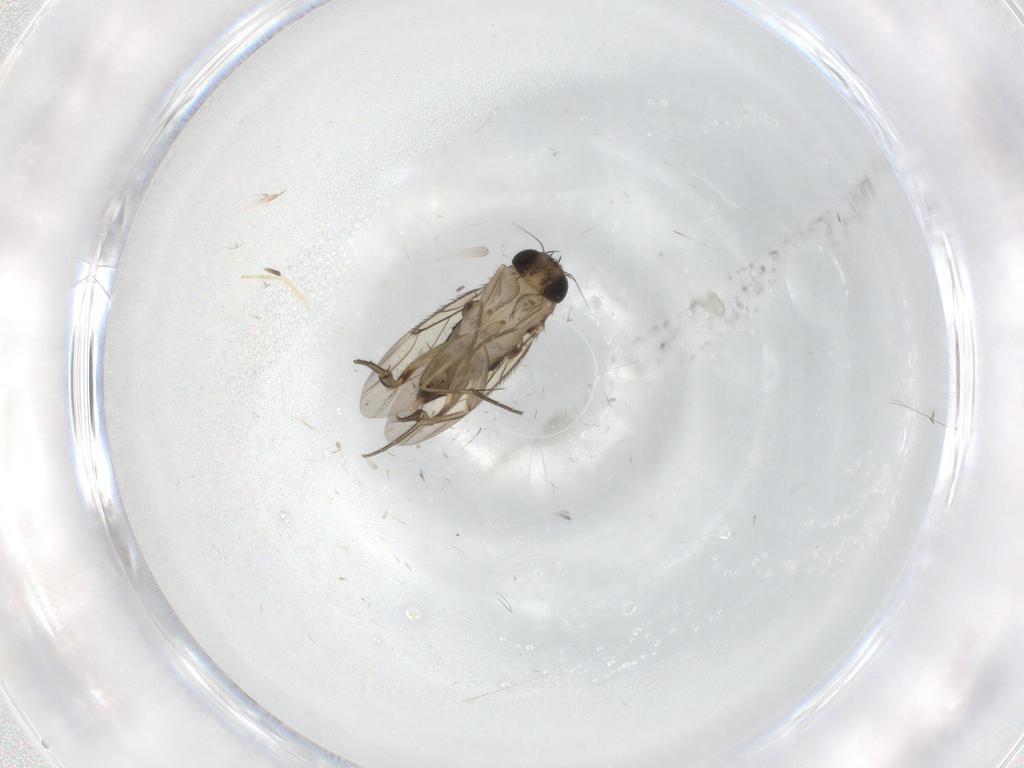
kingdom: Animalia
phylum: Arthropoda
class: Insecta
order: Diptera
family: Phoridae
